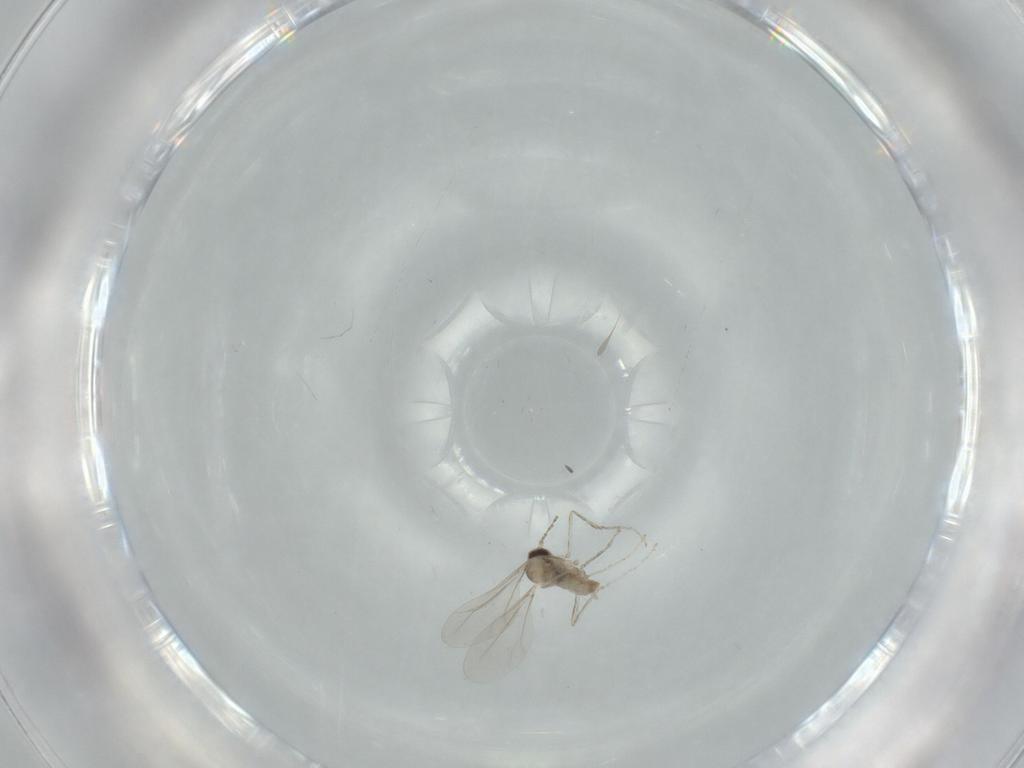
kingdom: Animalia
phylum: Arthropoda
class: Insecta
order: Diptera
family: Cecidomyiidae
